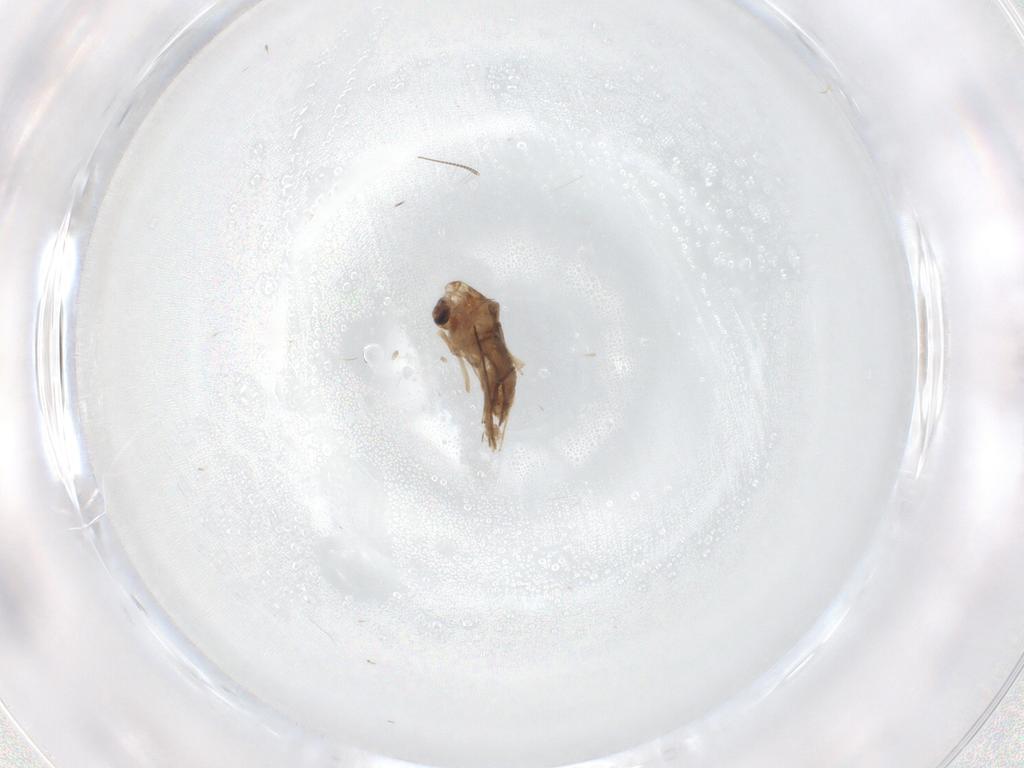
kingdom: Animalia
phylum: Arthropoda
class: Insecta
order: Diptera
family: Chironomidae
